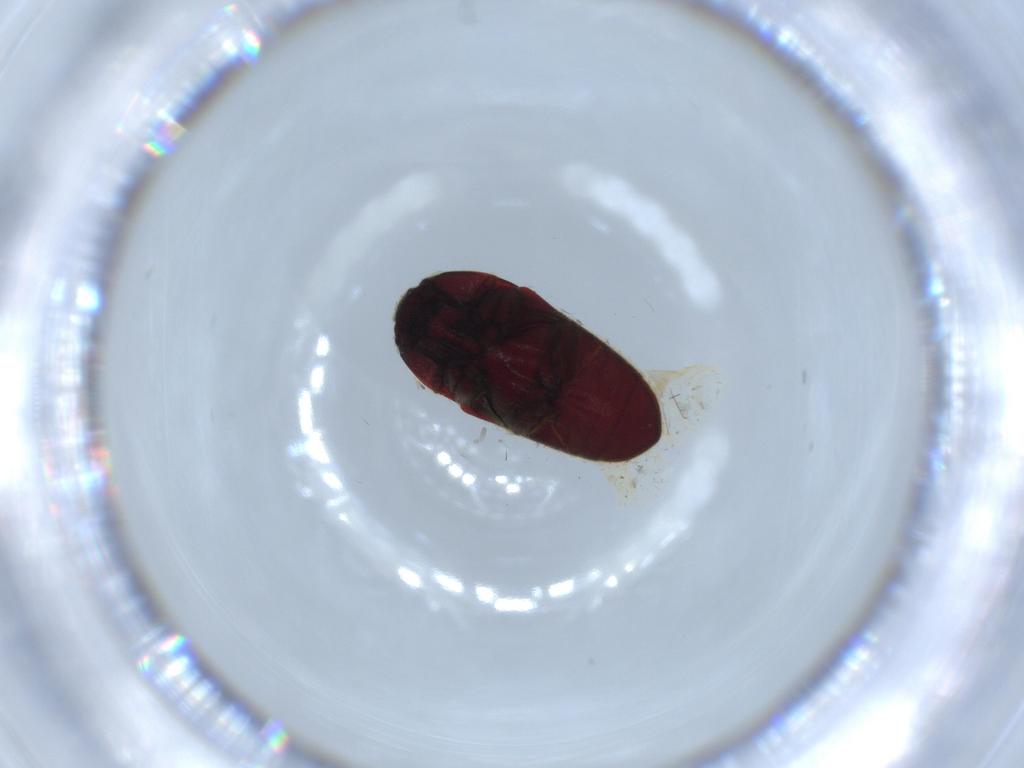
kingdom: Animalia
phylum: Arthropoda
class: Insecta
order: Coleoptera
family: Throscidae
